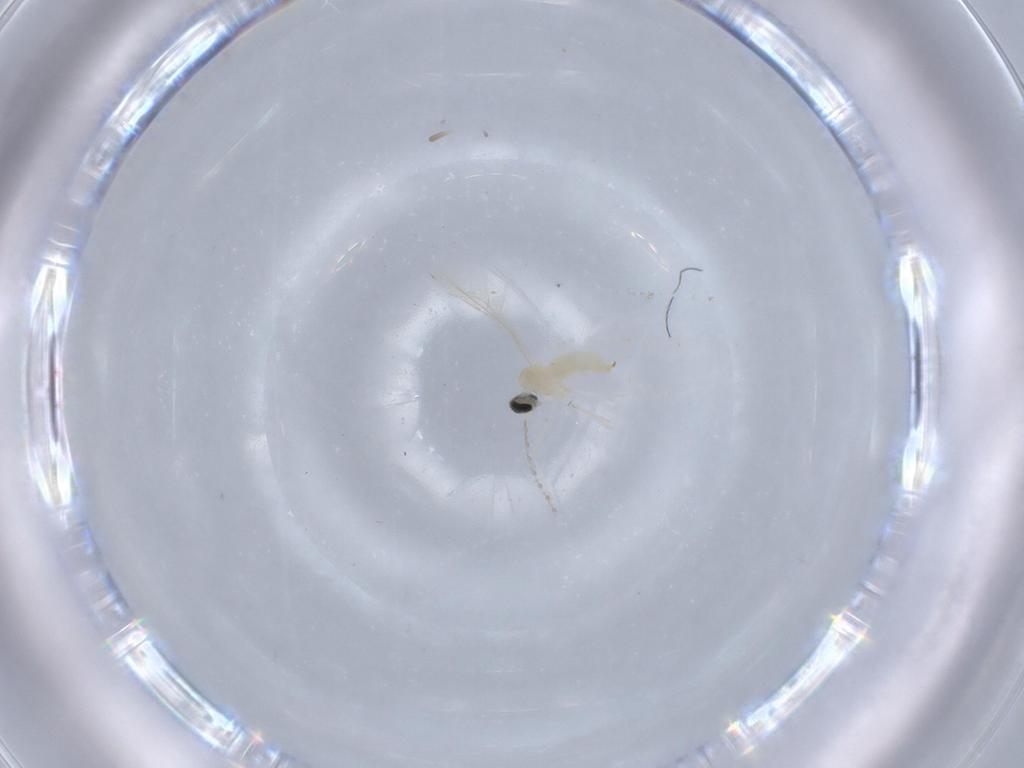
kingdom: Animalia
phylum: Arthropoda
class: Insecta
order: Diptera
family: Cecidomyiidae
